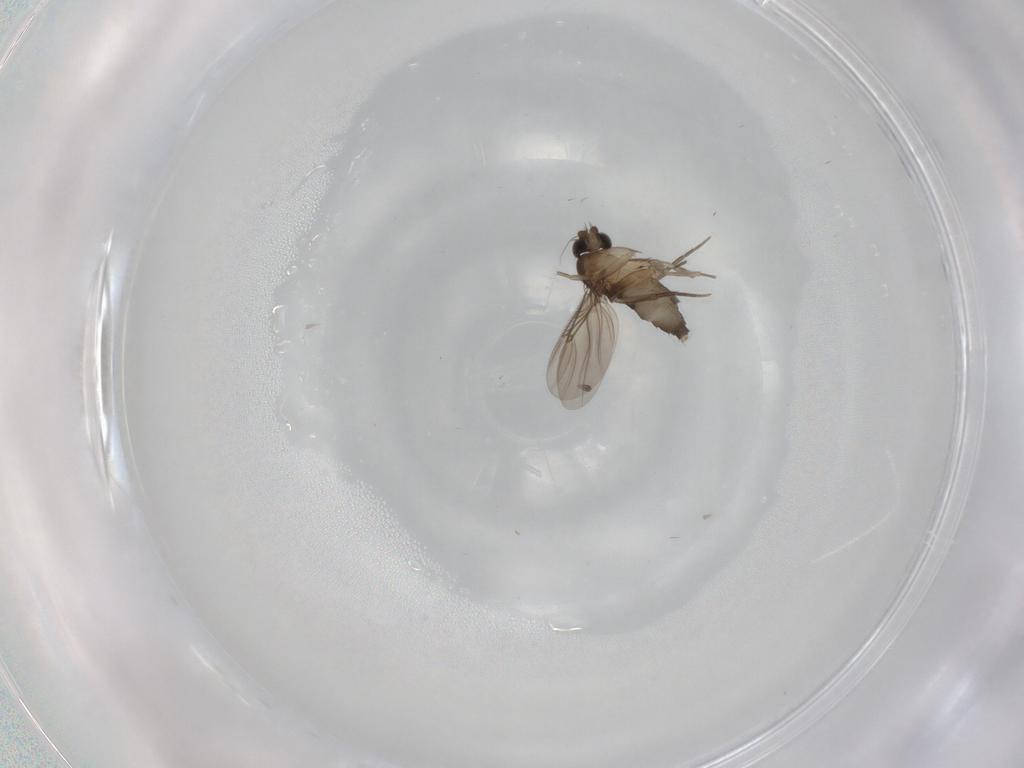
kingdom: Animalia
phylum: Arthropoda
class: Insecta
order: Diptera
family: Phoridae
